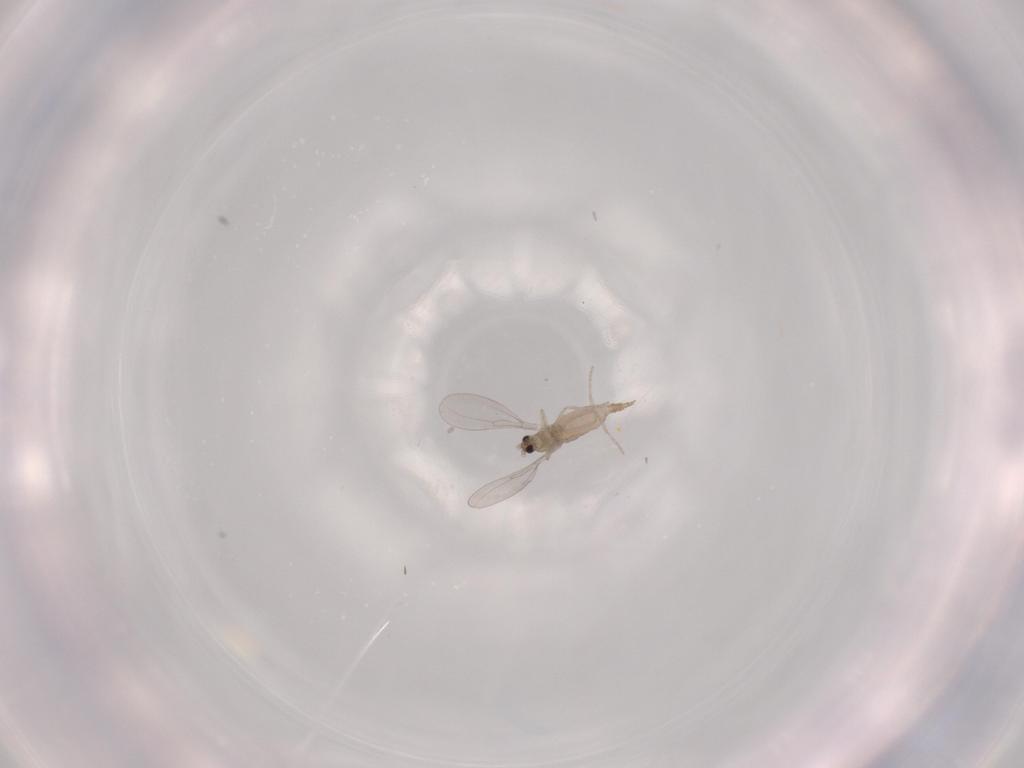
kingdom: Animalia
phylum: Arthropoda
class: Insecta
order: Diptera
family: Cecidomyiidae
